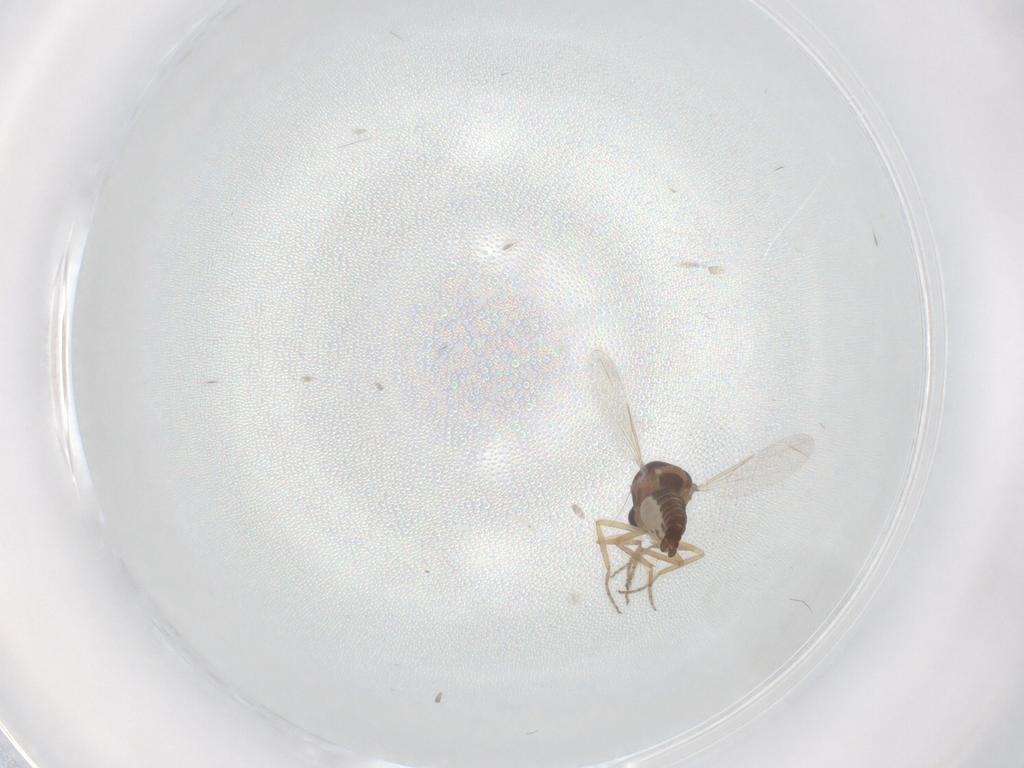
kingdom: Animalia
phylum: Arthropoda
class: Insecta
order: Diptera
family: Ceratopogonidae
